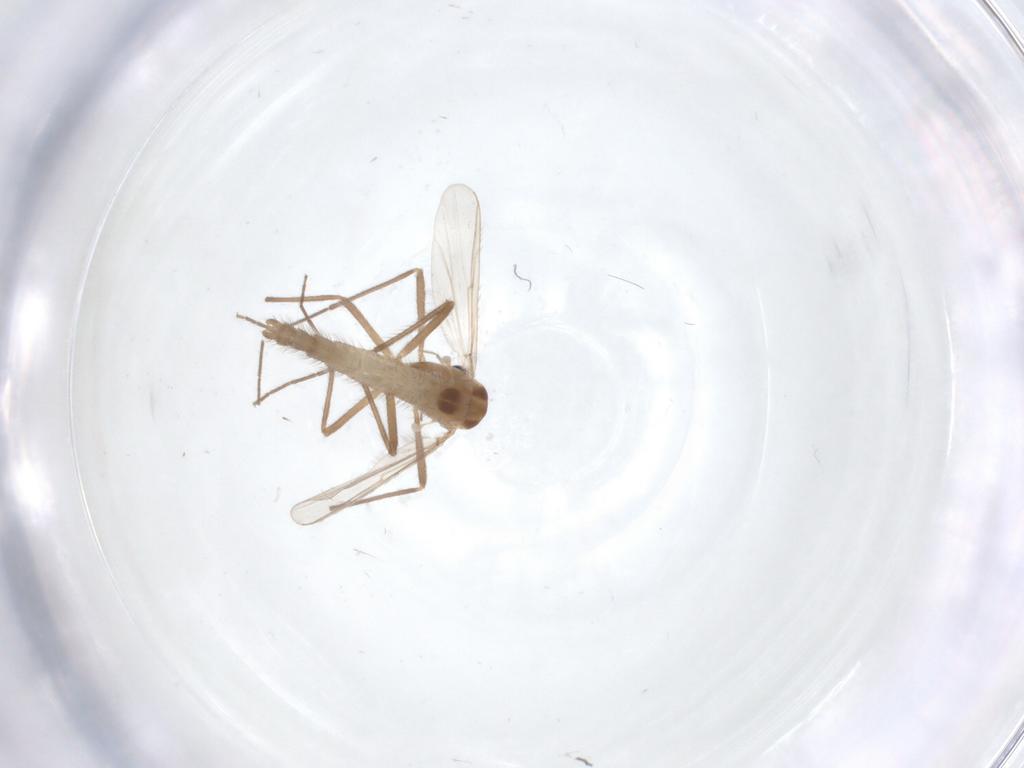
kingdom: Animalia
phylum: Arthropoda
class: Insecta
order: Diptera
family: Chironomidae
